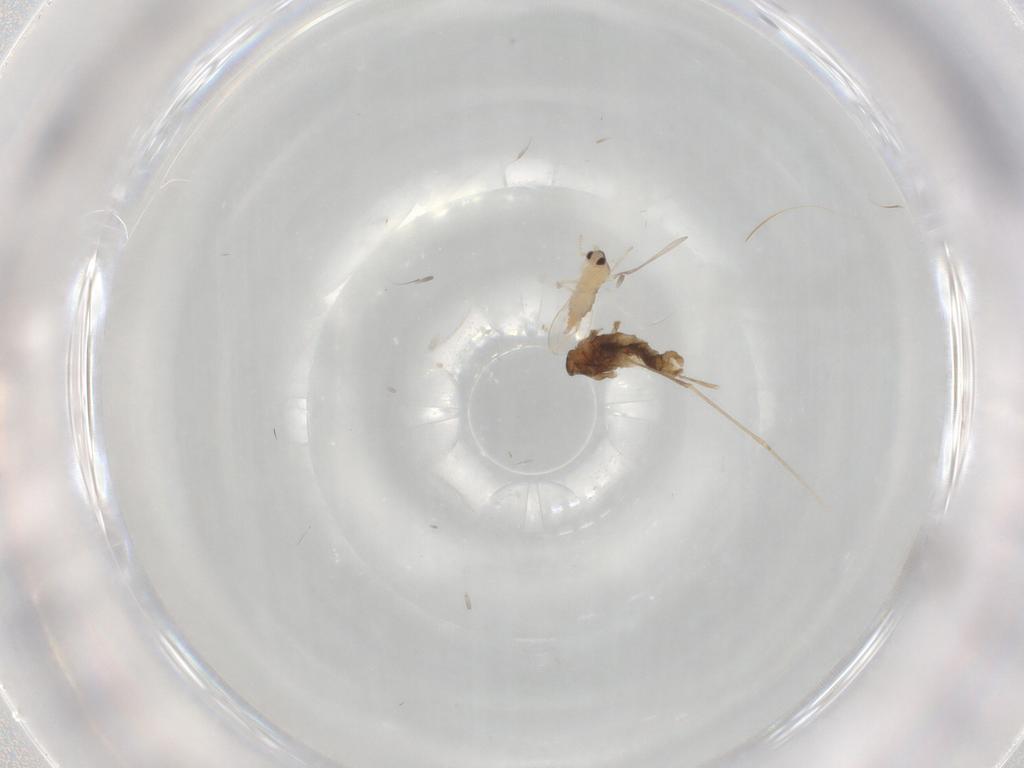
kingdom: Animalia
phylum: Arthropoda
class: Insecta
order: Diptera
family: Cecidomyiidae
